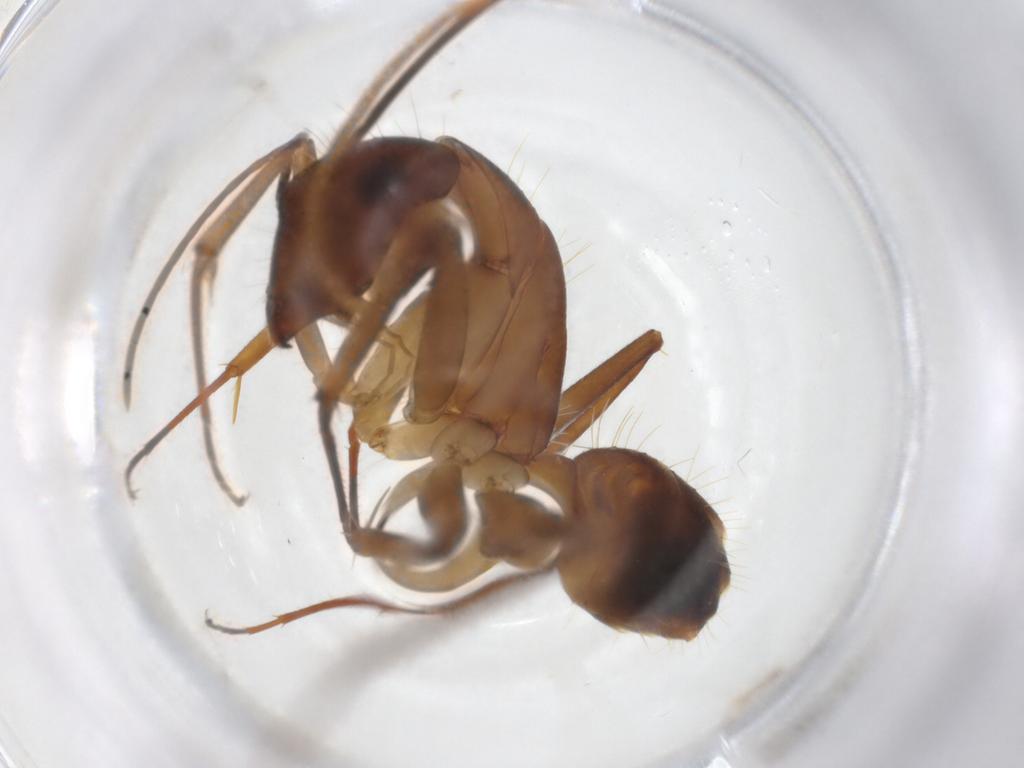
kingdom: Animalia
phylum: Arthropoda
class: Insecta
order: Hymenoptera
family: Formicidae
